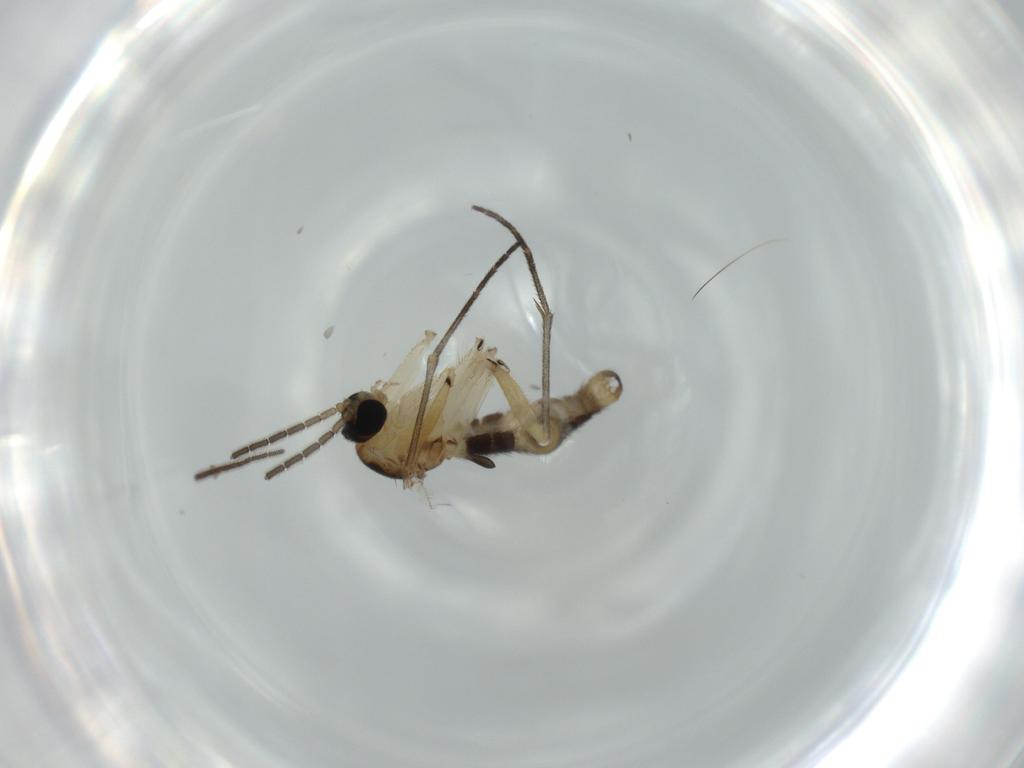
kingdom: Animalia
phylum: Arthropoda
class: Insecta
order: Diptera
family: Sciaridae
